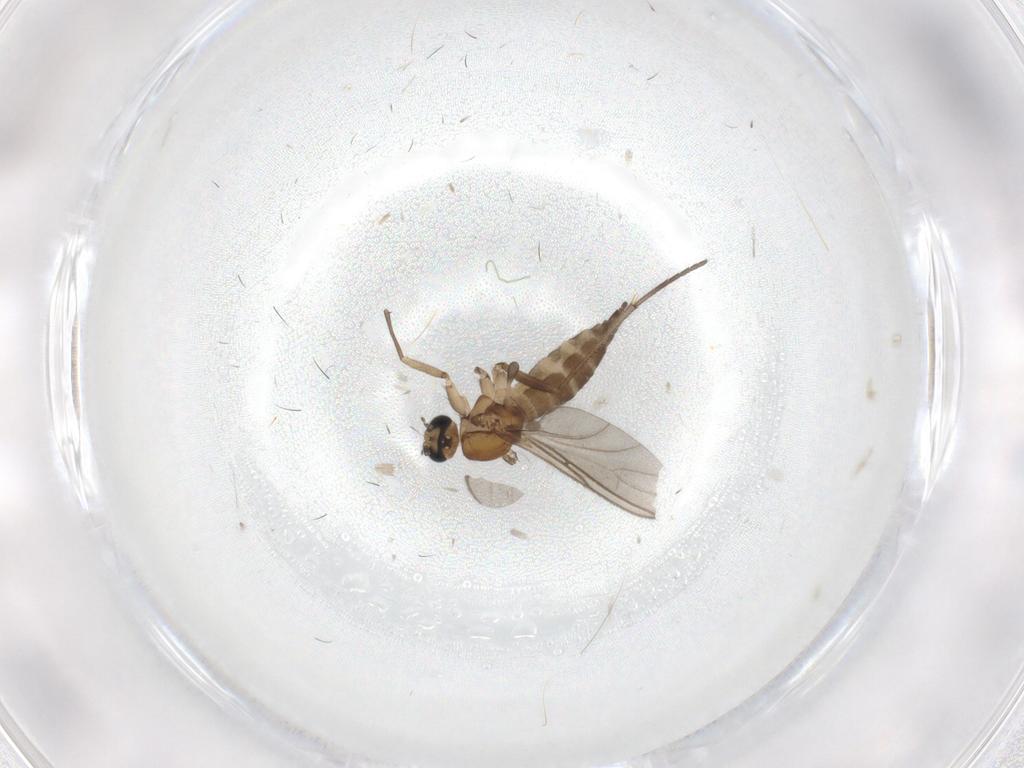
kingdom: Animalia
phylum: Arthropoda
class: Insecta
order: Diptera
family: Sciaridae
